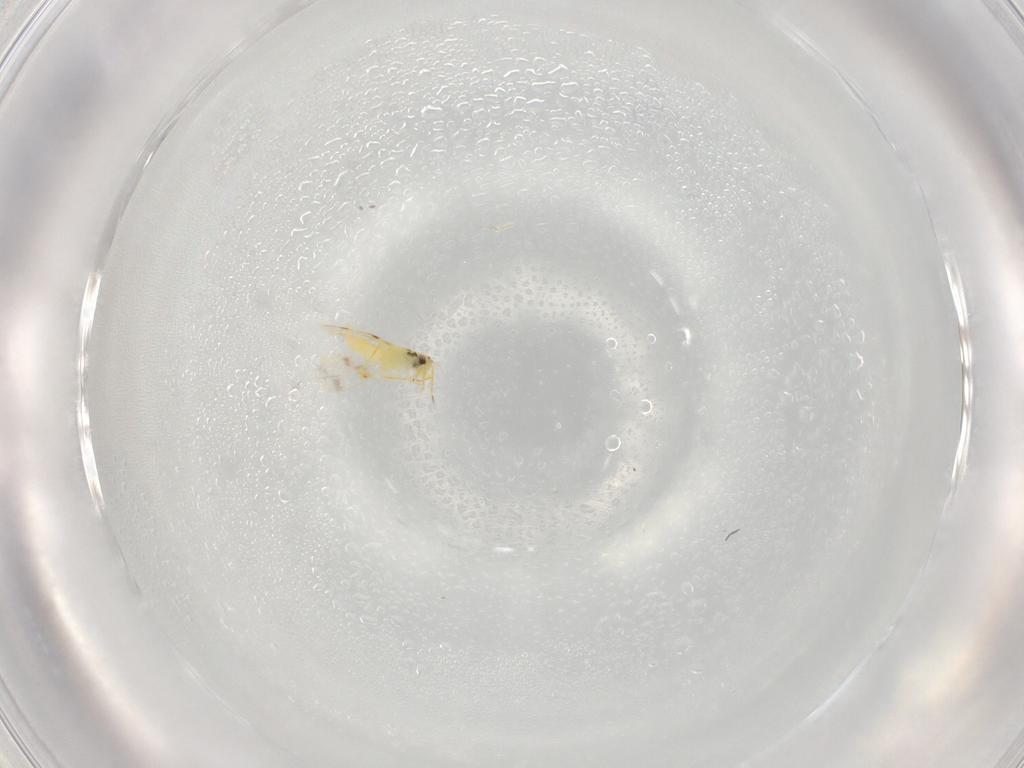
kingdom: Animalia
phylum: Arthropoda
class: Insecta
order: Hemiptera
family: Aleyrodidae
